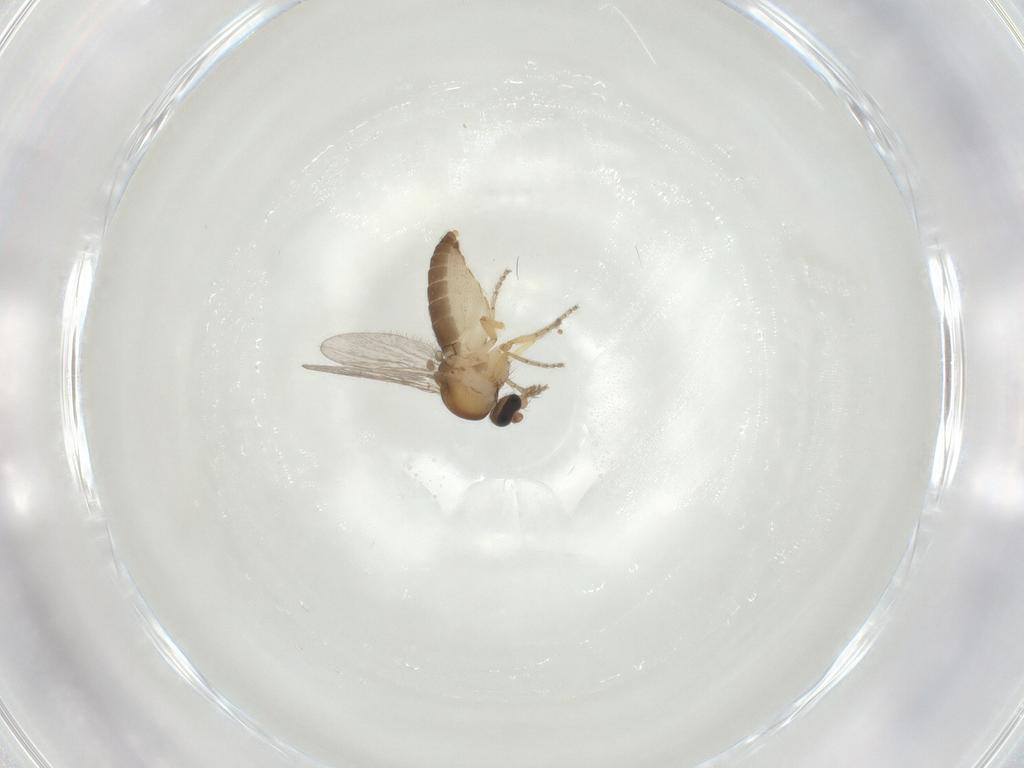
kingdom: Animalia
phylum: Arthropoda
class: Insecta
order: Diptera
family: Ceratopogonidae
